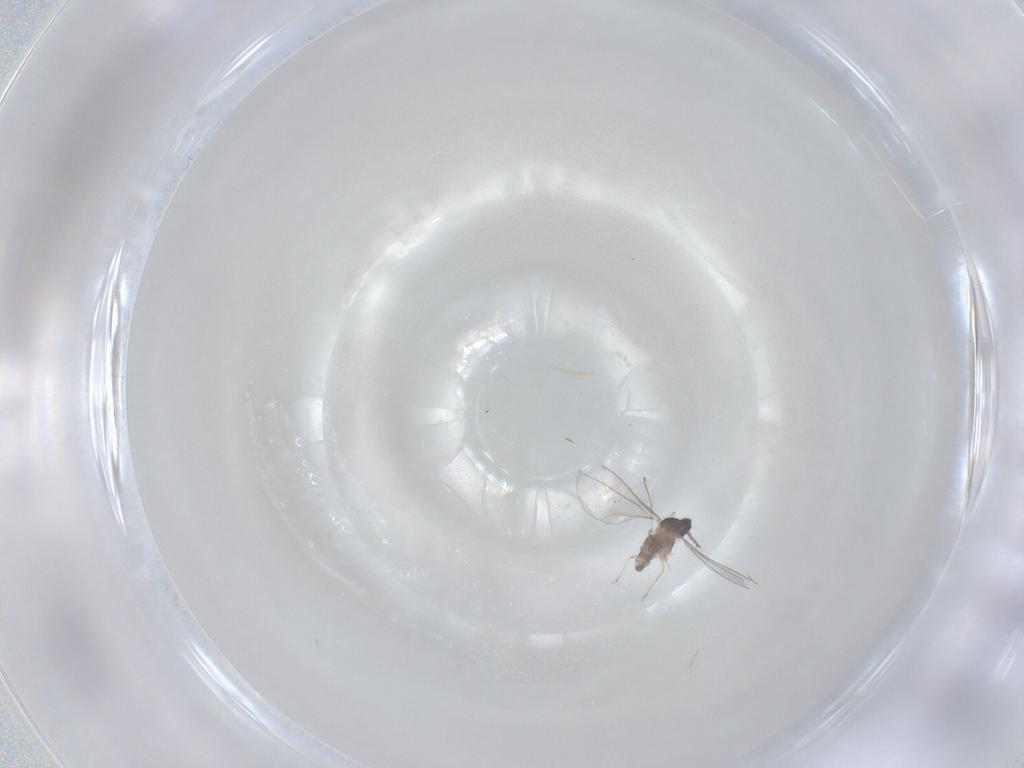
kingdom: Animalia
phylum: Arthropoda
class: Insecta
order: Diptera
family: Cecidomyiidae
